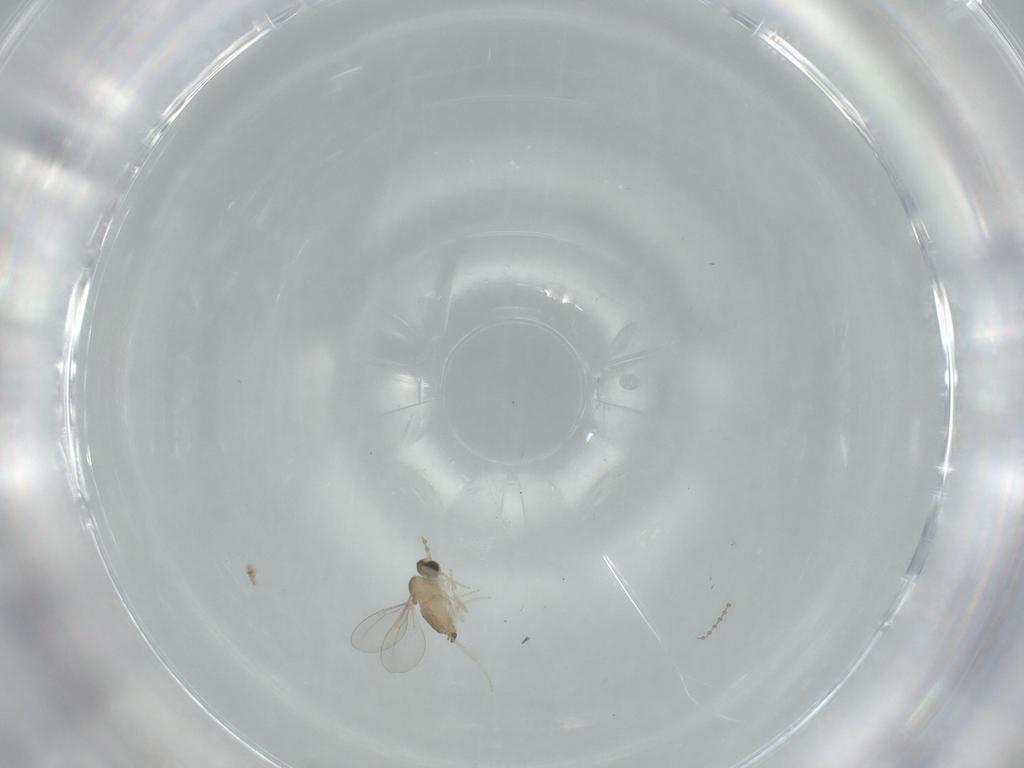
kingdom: Animalia
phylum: Arthropoda
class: Insecta
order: Diptera
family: Cecidomyiidae
